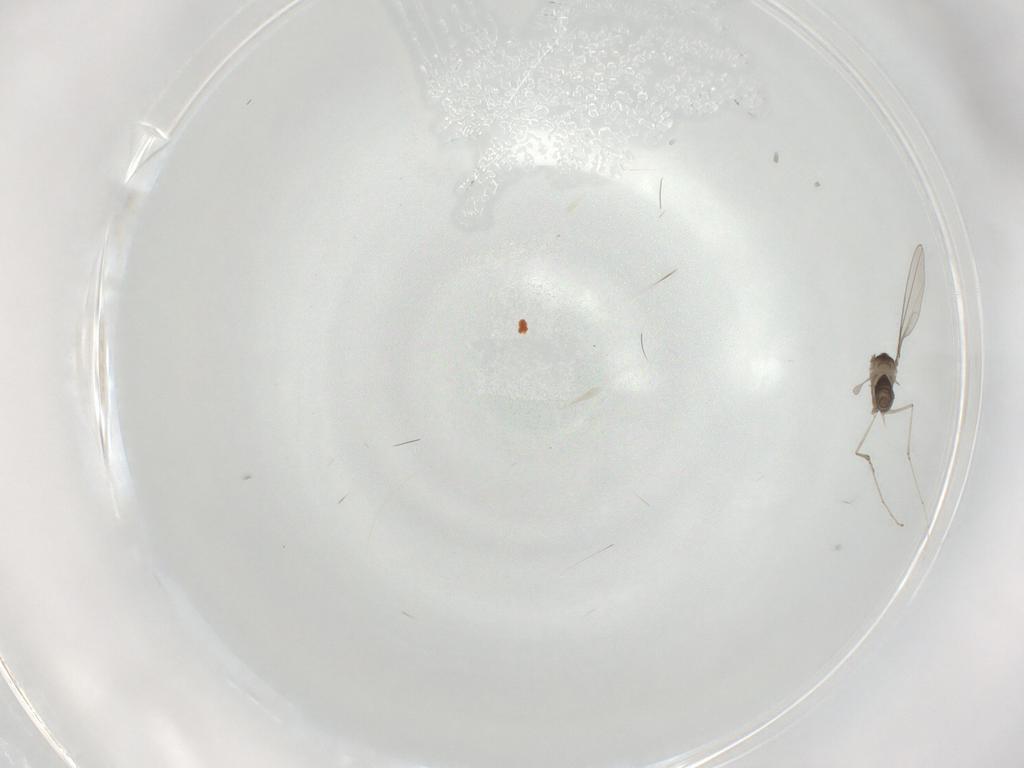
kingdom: Animalia
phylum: Arthropoda
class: Insecta
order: Diptera
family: Cecidomyiidae
